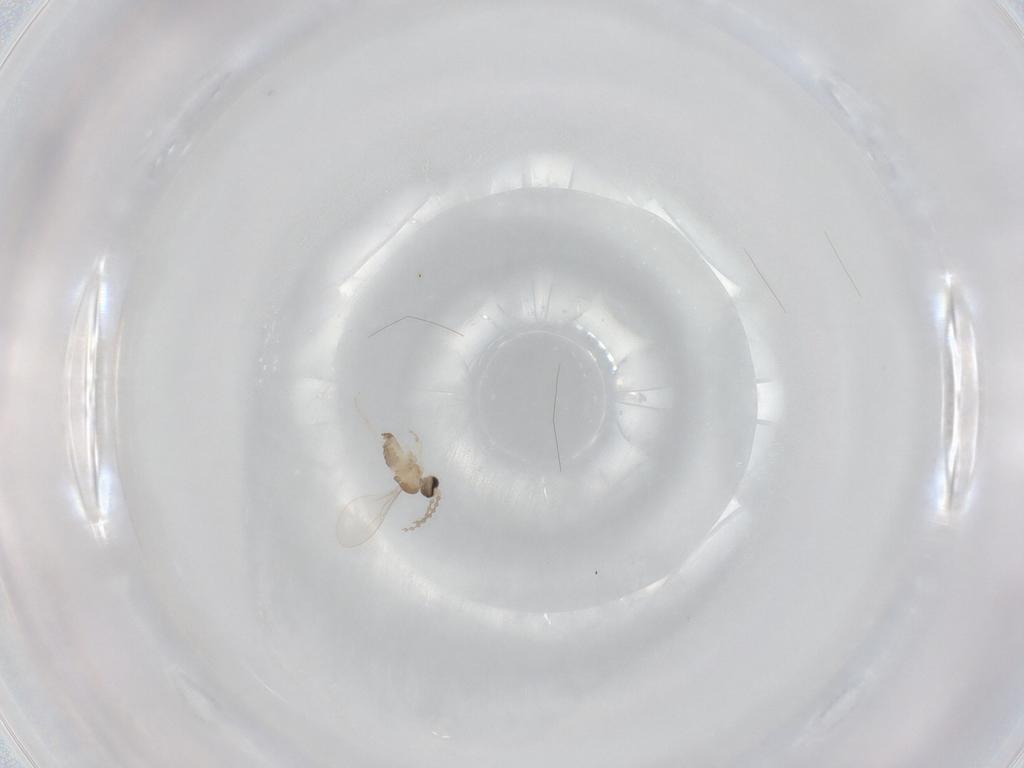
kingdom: Animalia
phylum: Arthropoda
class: Insecta
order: Diptera
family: Cecidomyiidae
